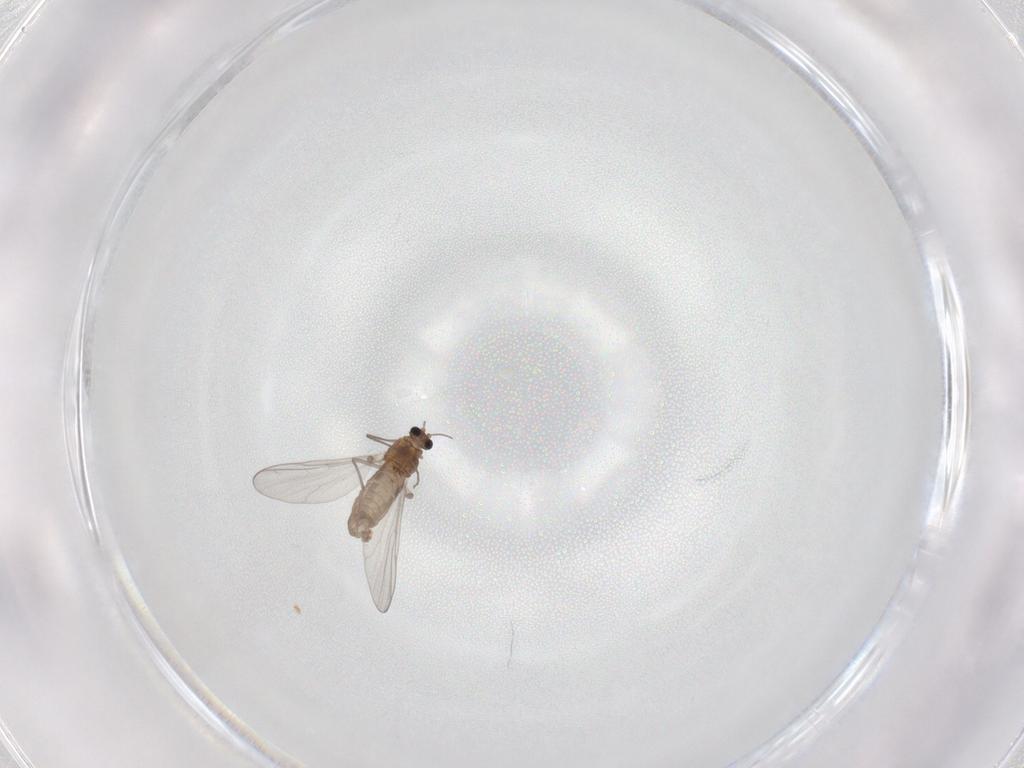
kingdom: Animalia
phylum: Arthropoda
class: Insecta
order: Diptera
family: Chironomidae
